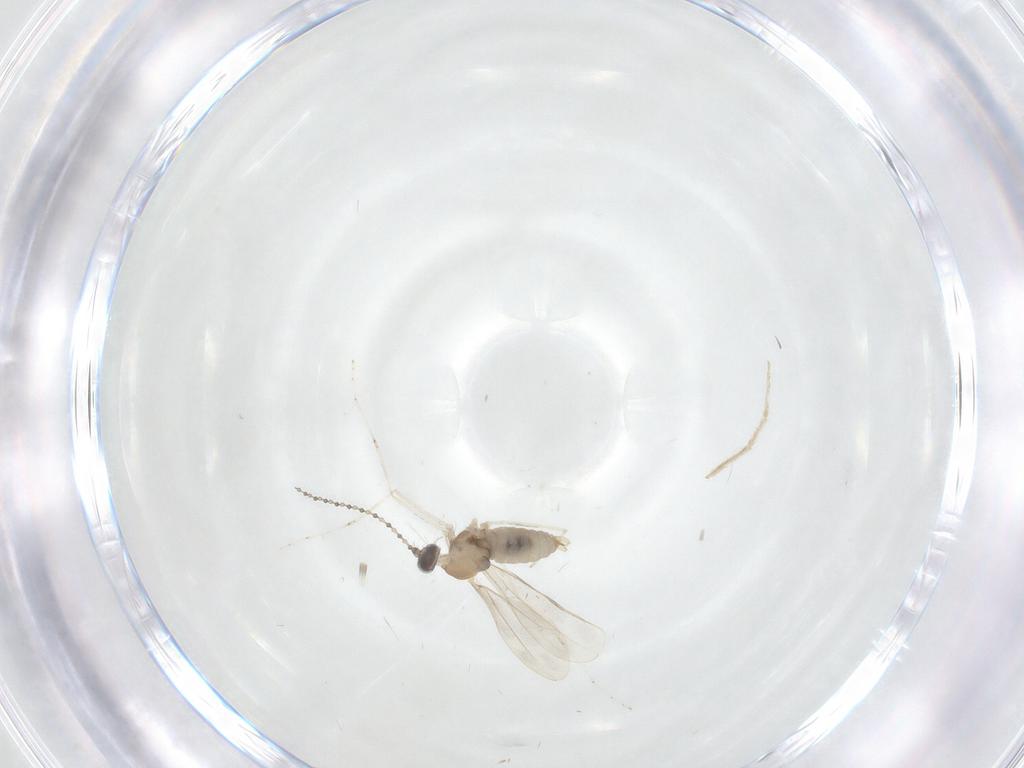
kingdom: Animalia
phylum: Arthropoda
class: Insecta
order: Diptera
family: Cecidomyiidae
